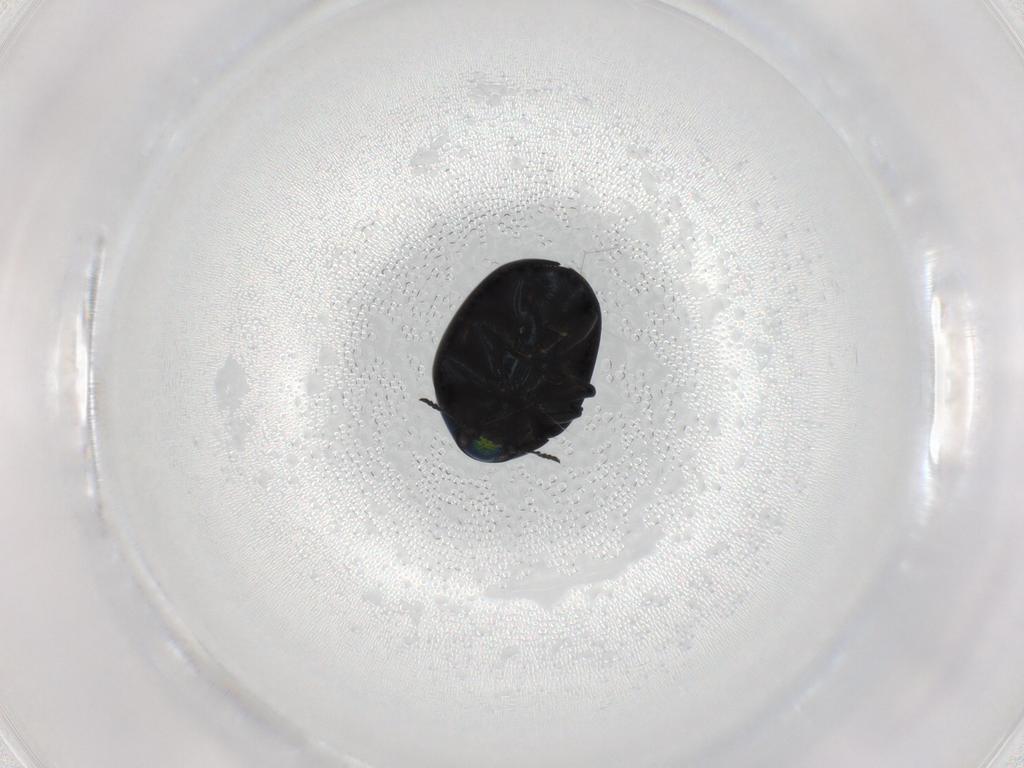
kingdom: Animalia
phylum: Arthropoda
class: Insecta
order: Coleoptera
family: Chrysomelidae
